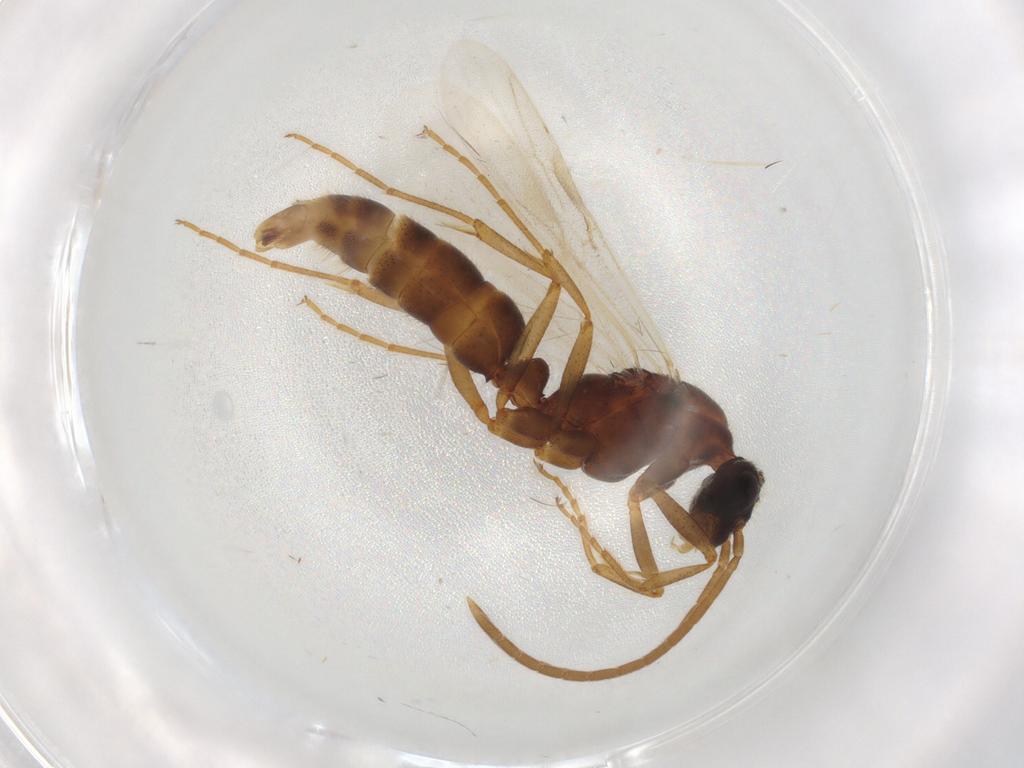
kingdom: Animalia
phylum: Arthropoda
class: Insecta
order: Hymenoptera
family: Formicidae
